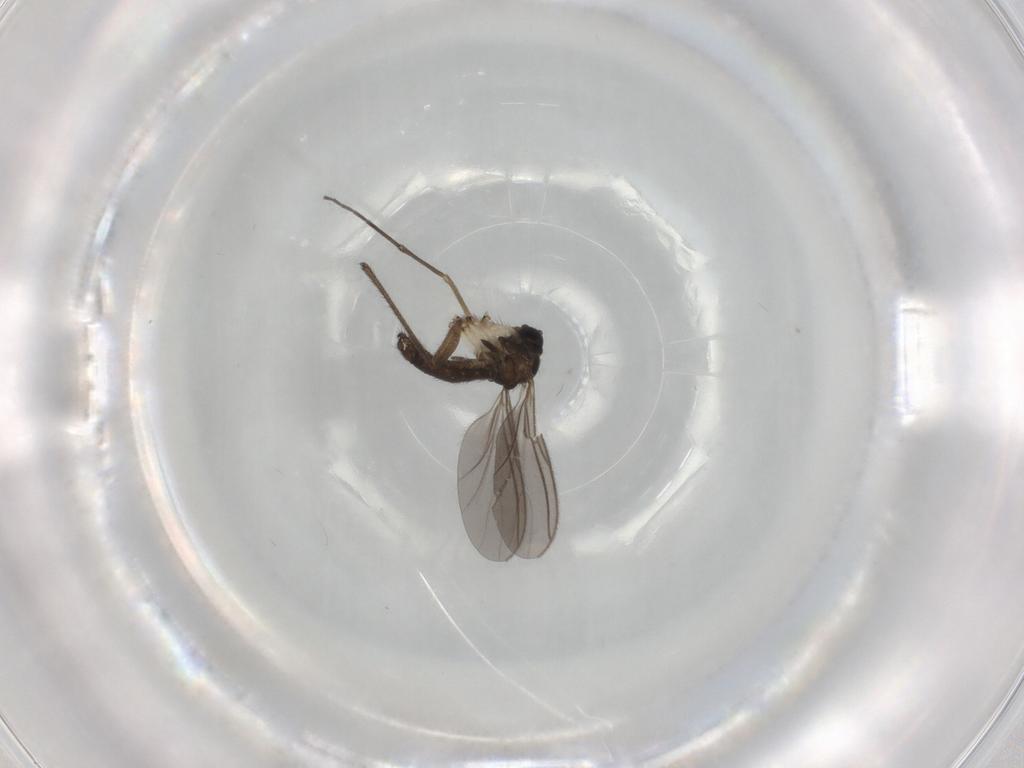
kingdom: Animalia
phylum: Arthropoda
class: Insecta
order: Diptera
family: Sciaridae
